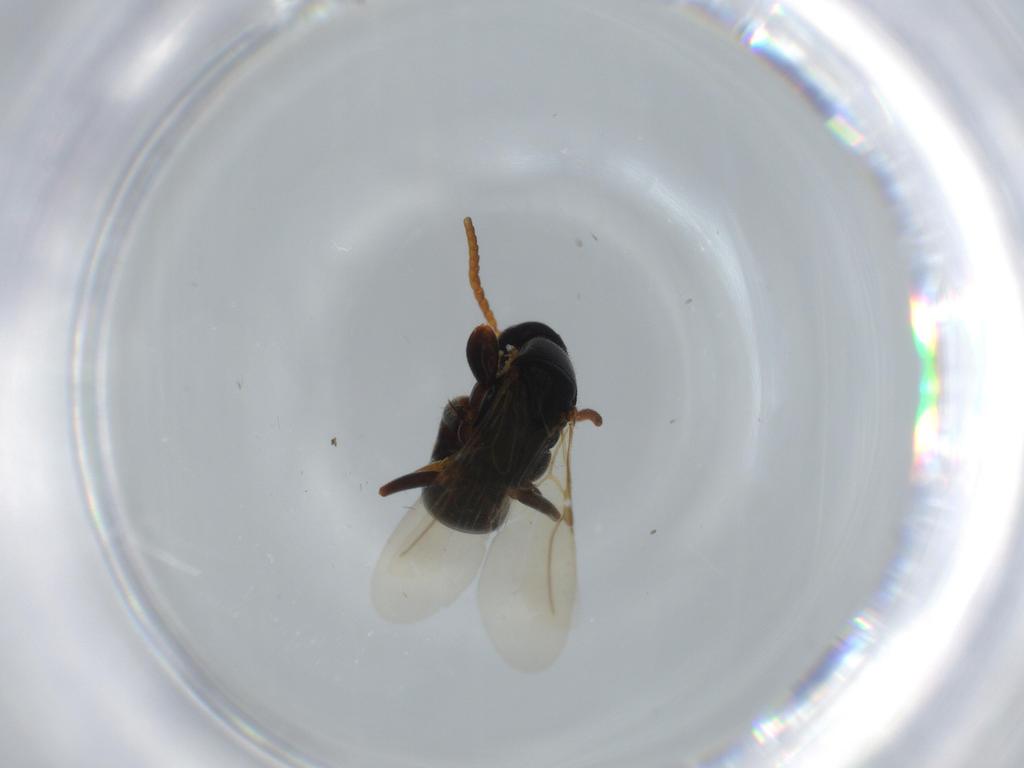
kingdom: Animalia
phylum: Arthropoda
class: Insecta
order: Hymenoptera
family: Bethylidae
